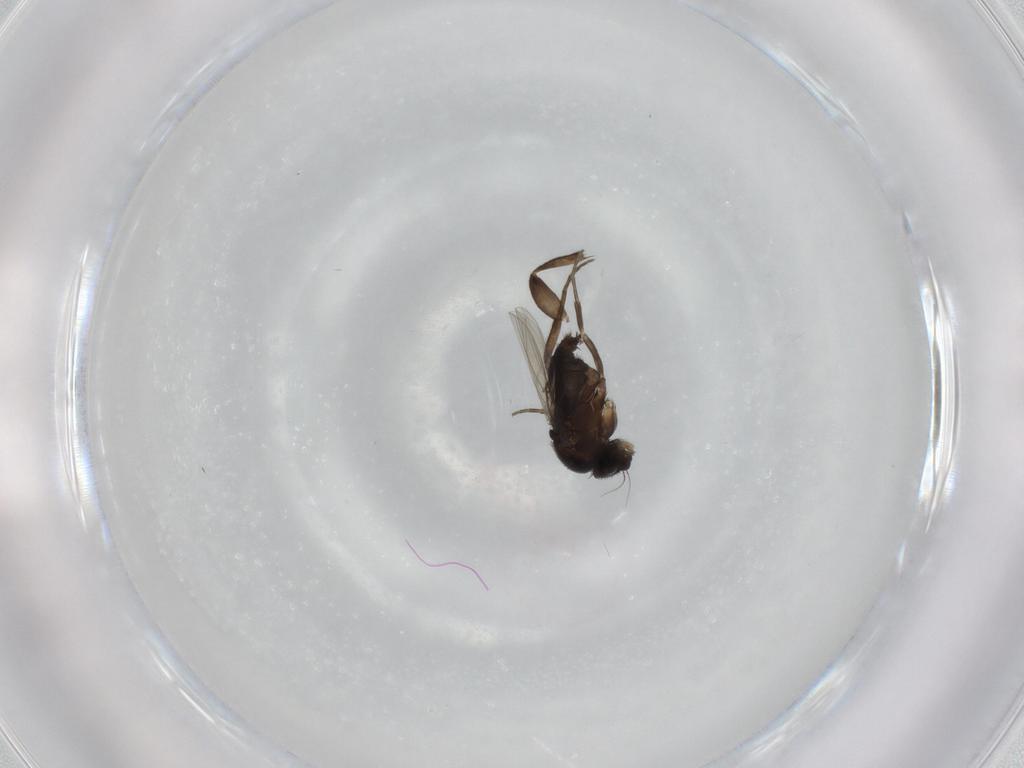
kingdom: Animalia
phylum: Arthropoda
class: Insecta
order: Diptera
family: Phoridae
